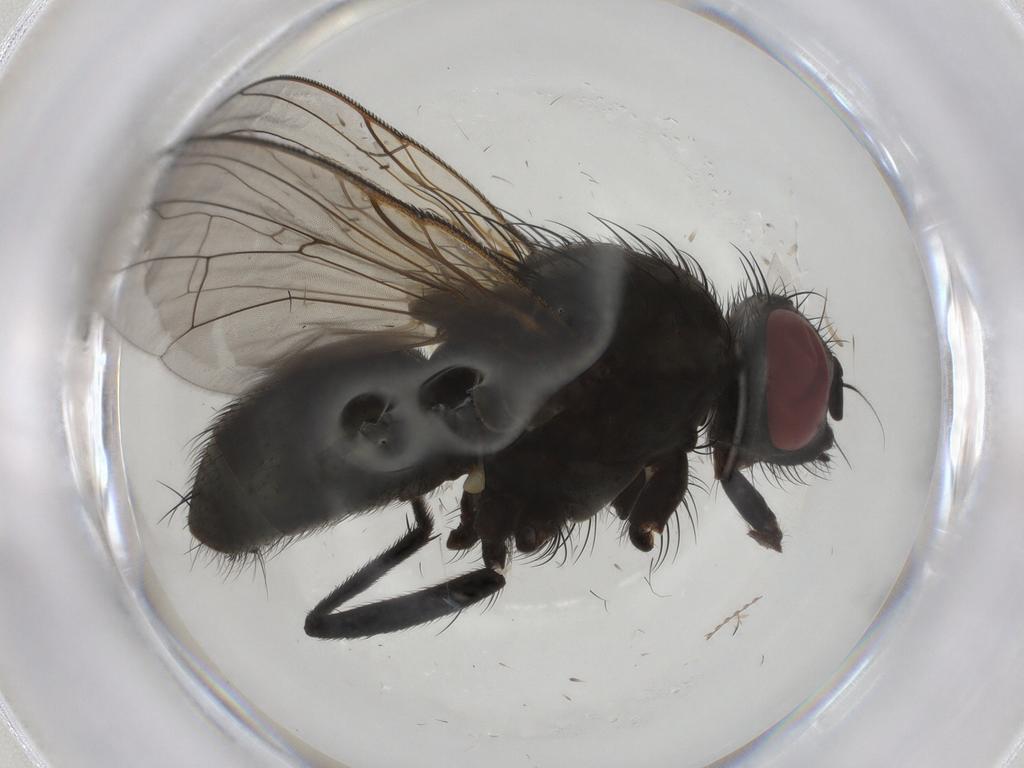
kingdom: Animalia
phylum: Arthropoda
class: Insecta
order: Diptera
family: Muscidae
